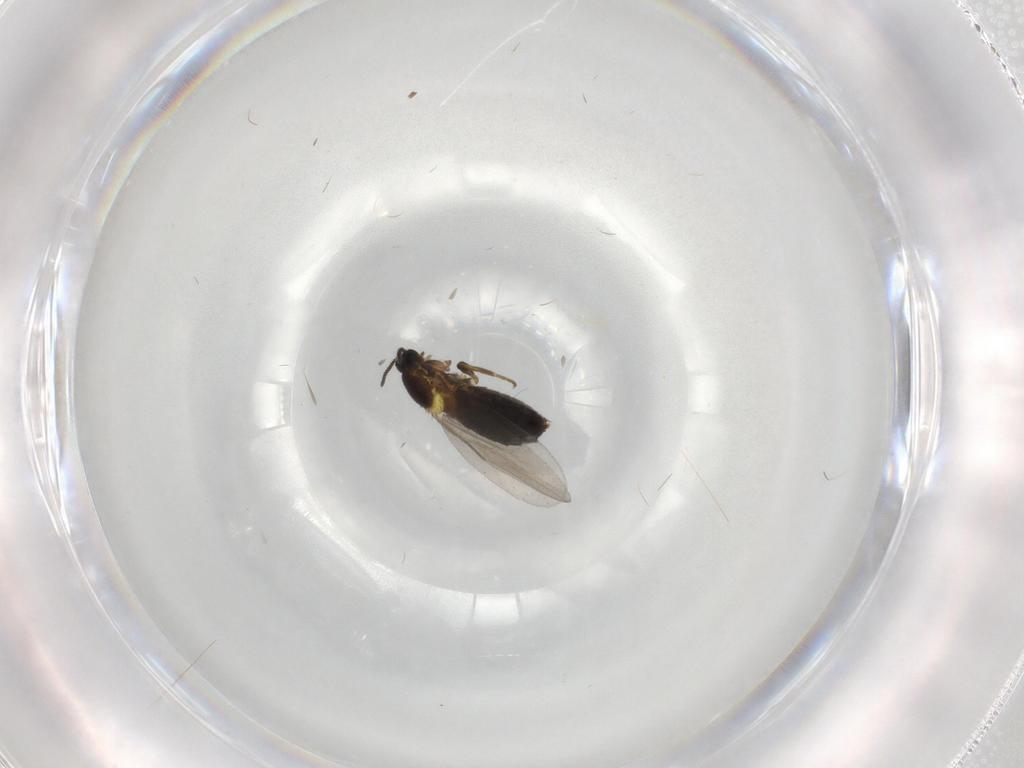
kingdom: Animalia
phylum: Arthropoda
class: Insecta
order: Diptera
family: Scatopsidae
